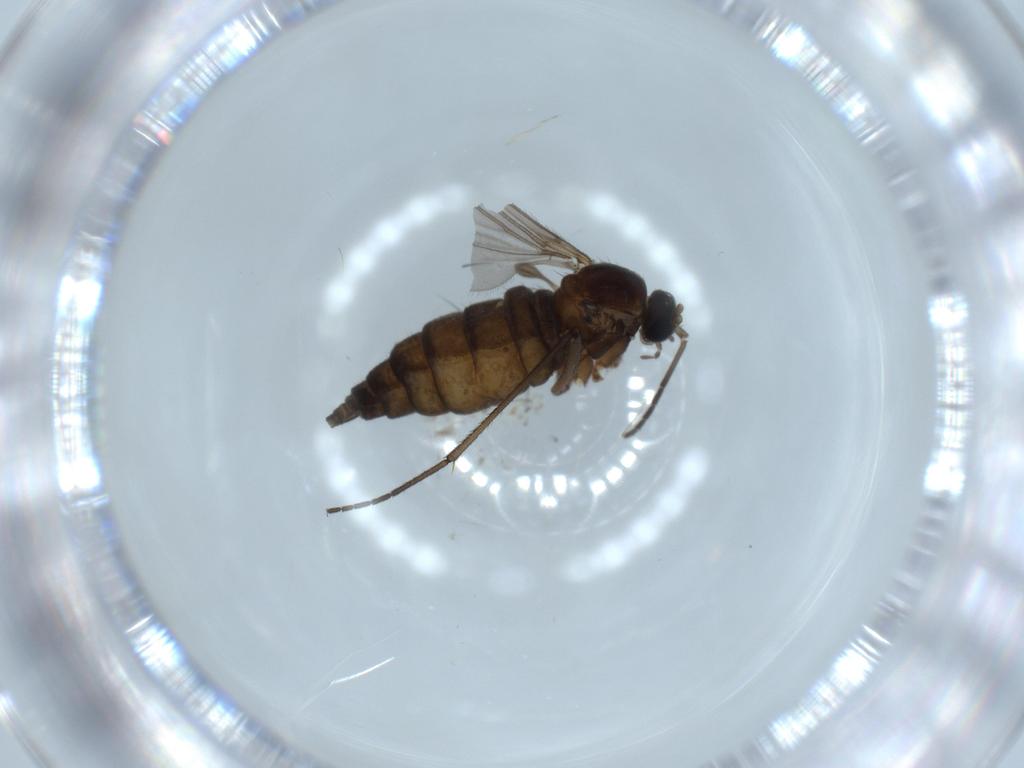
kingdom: Animalia
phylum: Arthropoda
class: Insecta
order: Diptera
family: Sciaridae
